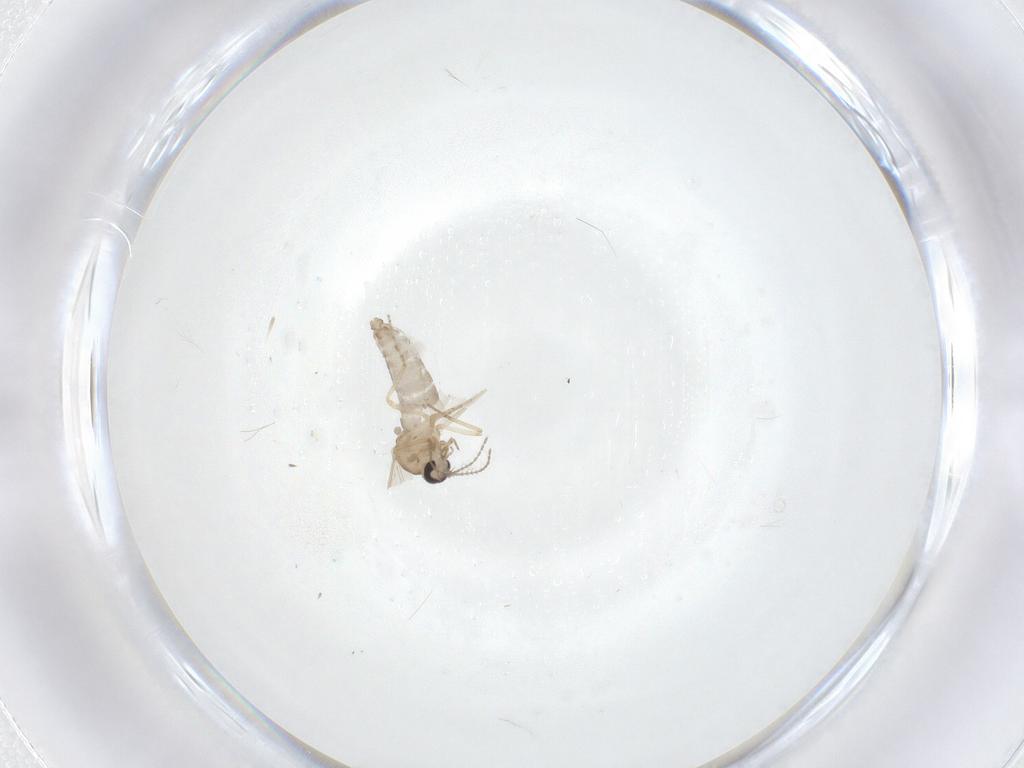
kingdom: Animalia
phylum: Arthropoda
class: Insecta
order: Diptera
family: Ceratopogonidae
